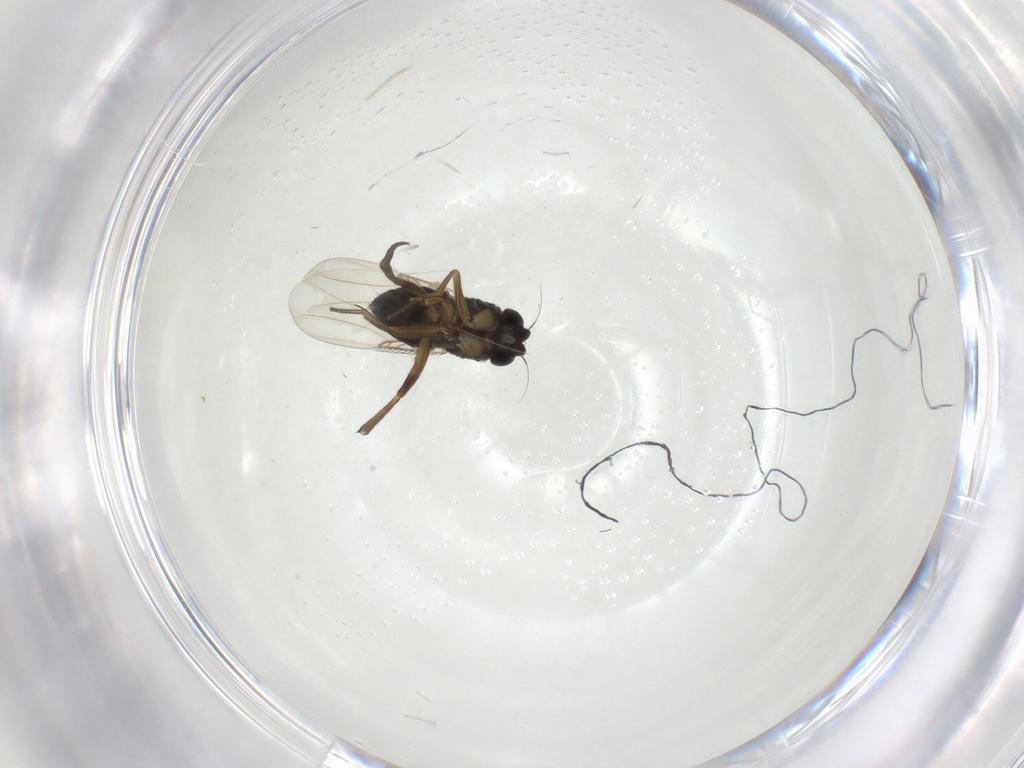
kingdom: Animalia
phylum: Arthropoda
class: Insecta
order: Diptera
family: Phoridae
